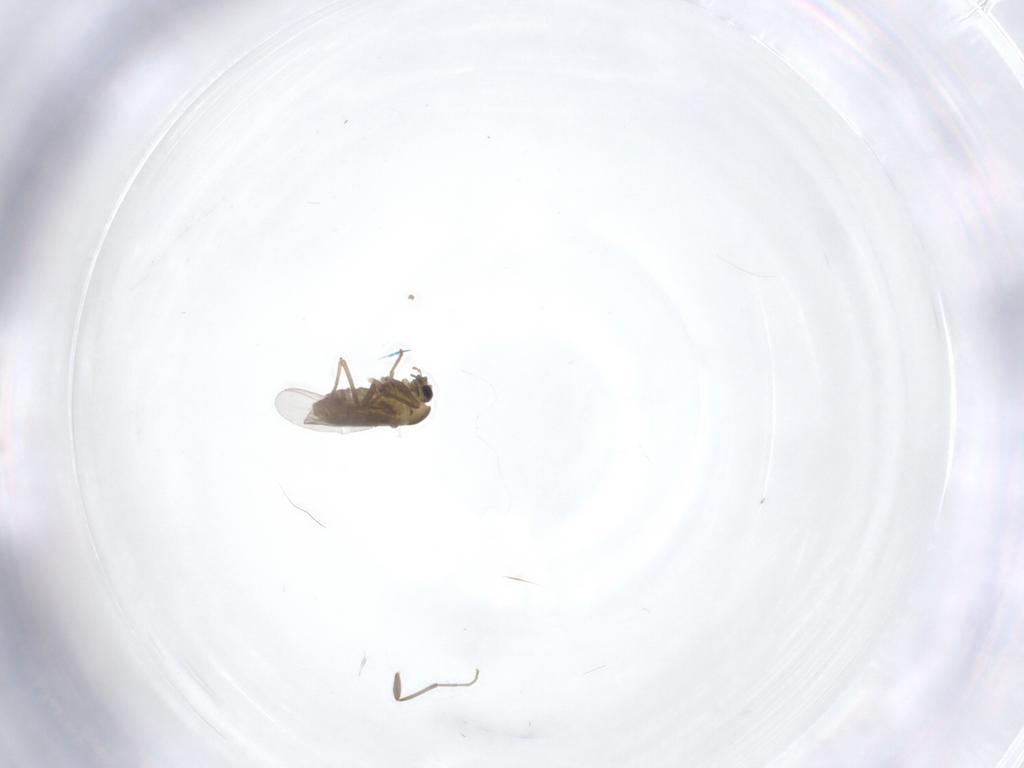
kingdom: Animalia
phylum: Arthropoda
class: Insecta
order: Diptera
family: Chironomidae
